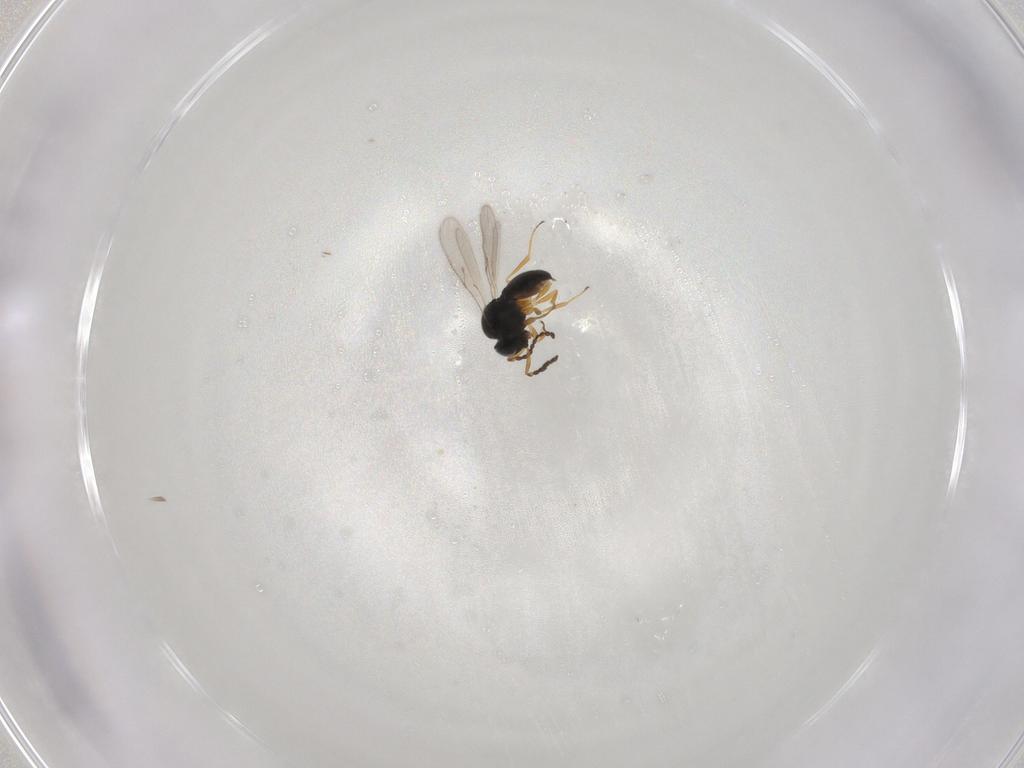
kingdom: Animalia
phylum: Arthropoda
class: Insecta
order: Hymenoptera
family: Scelionidae
